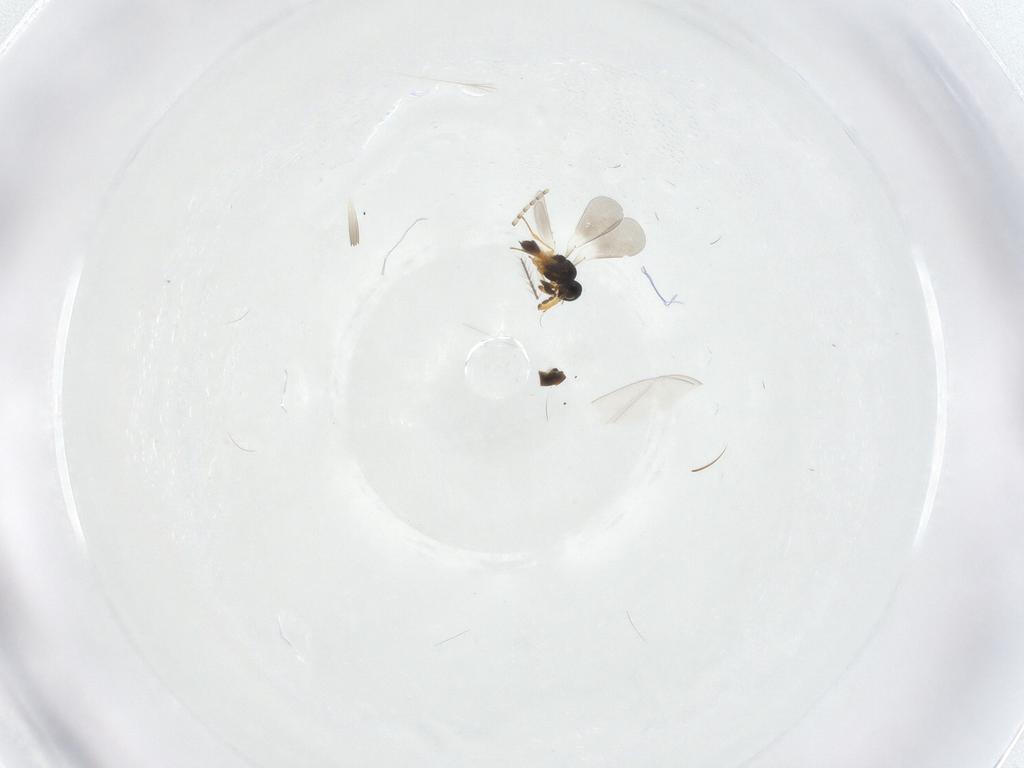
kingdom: Animalia
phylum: Arthropoda
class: Insecta
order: Hymenoptera
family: Platygastridae
